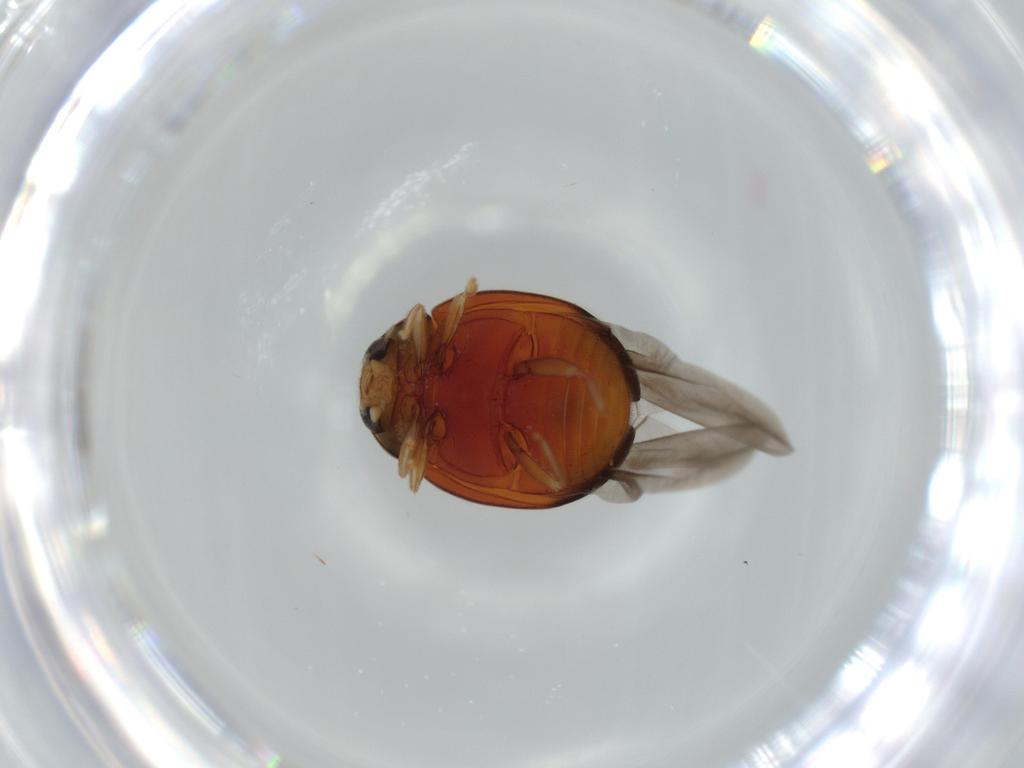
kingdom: Animalia
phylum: Arthropoda
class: Insecta
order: Coleoptera
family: Coccinellidae
